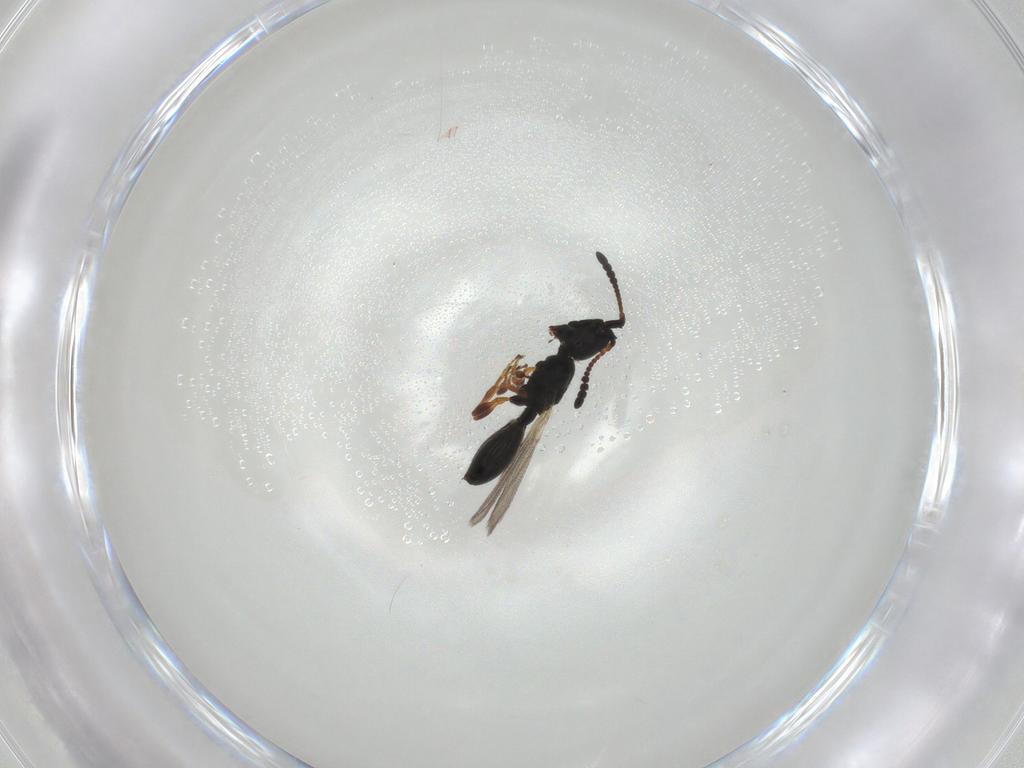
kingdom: Animalia
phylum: Arthropoda
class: Insecta
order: Hymenoptera
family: Diapriidae
